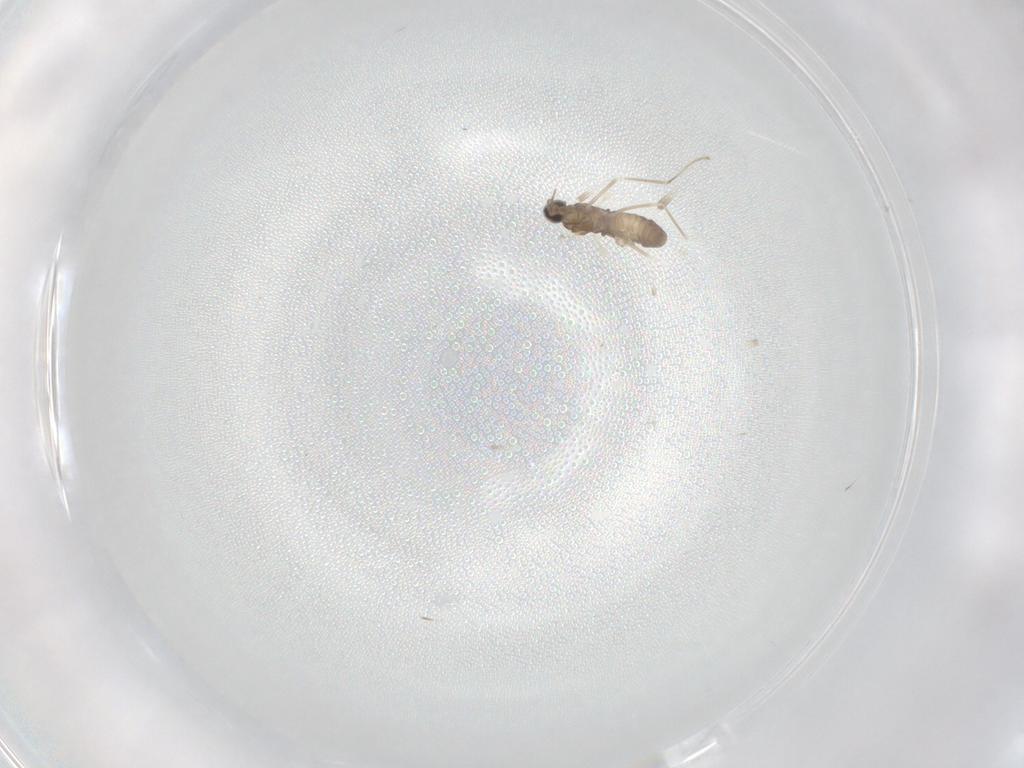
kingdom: Animalia
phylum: Arthropoda
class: Insecta
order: Diptera
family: Cecidomyiidae
